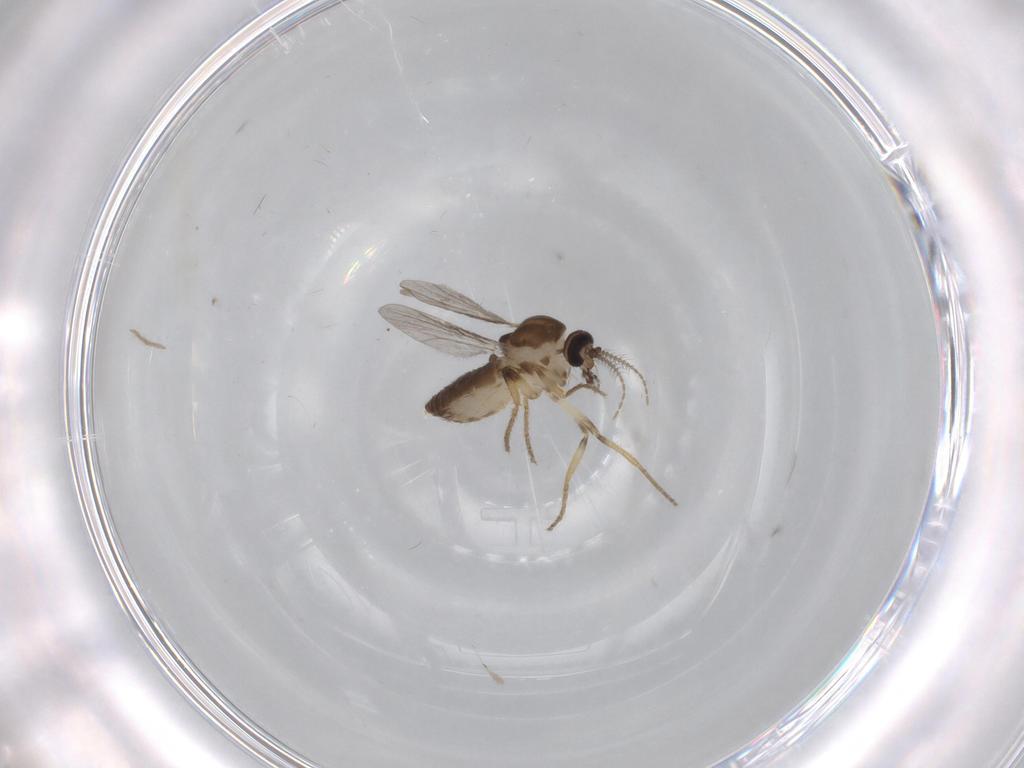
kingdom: Animalia
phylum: Arthropoda
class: Insecta
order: Diptera
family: Ceratopogonidae
